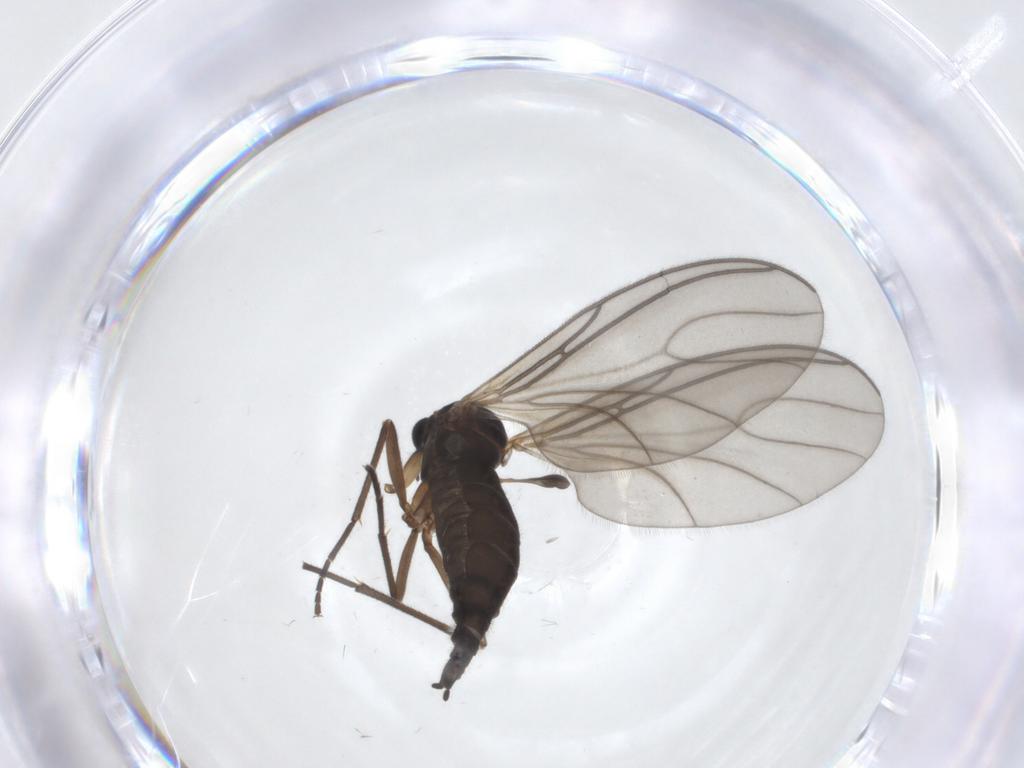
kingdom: Animalia
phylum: Arthropoda
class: Insecta
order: Diptera
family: Sciaridae
